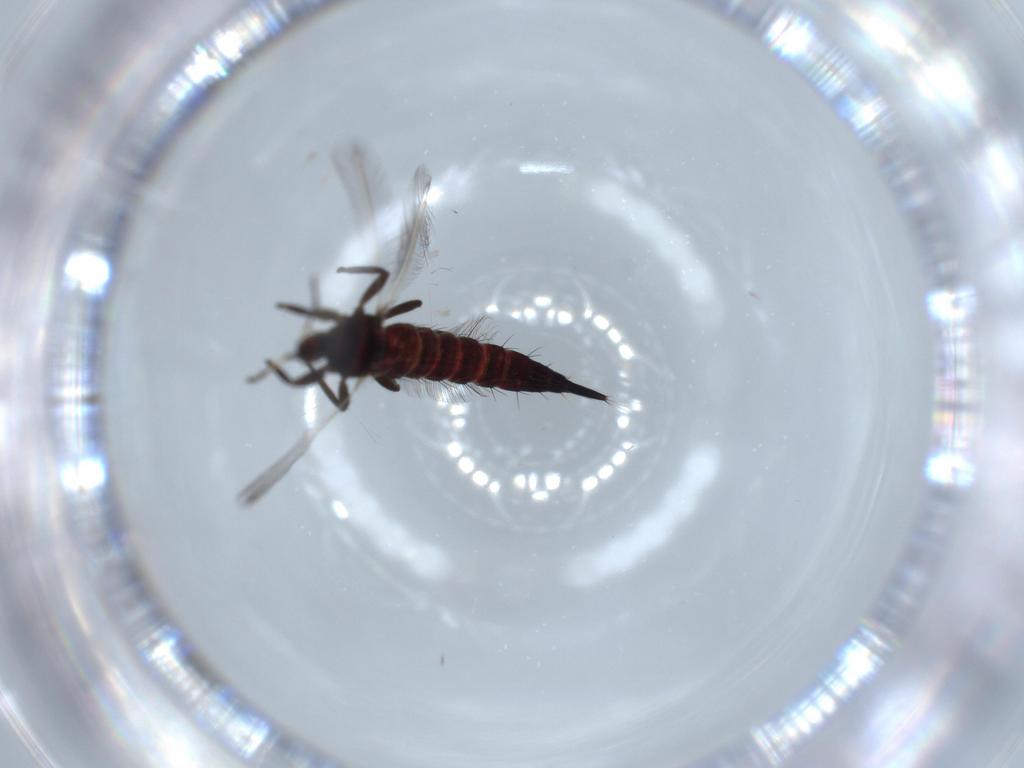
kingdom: Animalia
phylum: Arthropoda
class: Insecta
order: Thysanoptera
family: Phlaeothripidae
